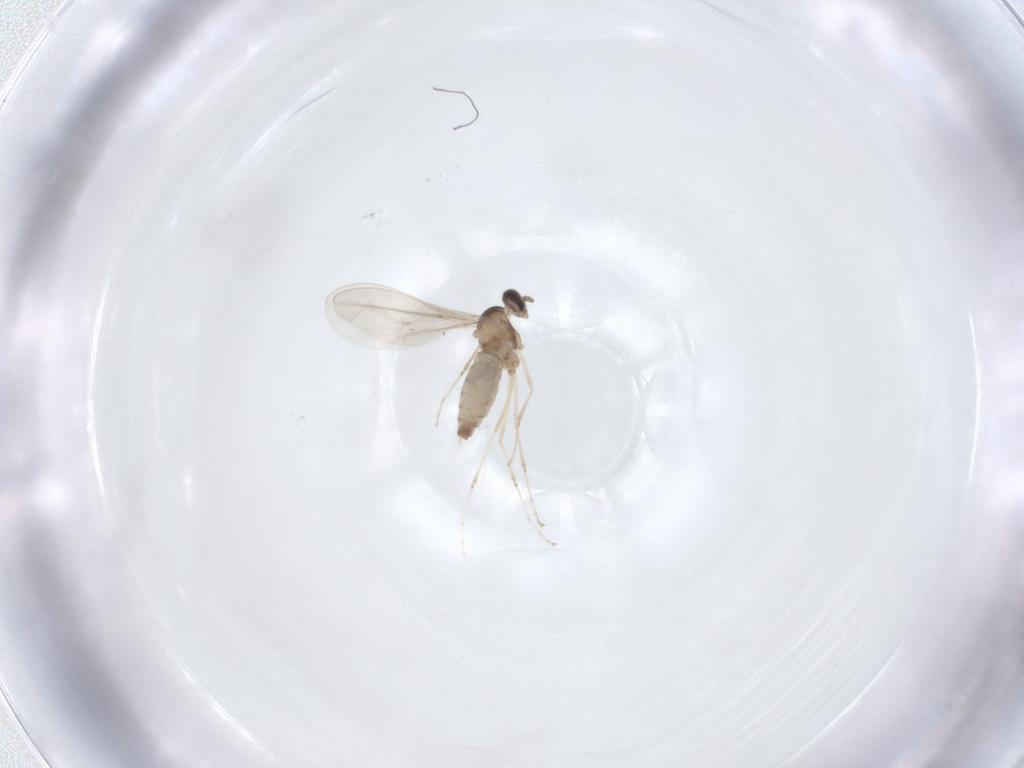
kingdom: Animalia
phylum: Arthropoda
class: Insecta
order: Diptera
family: Cecidomyiidae
